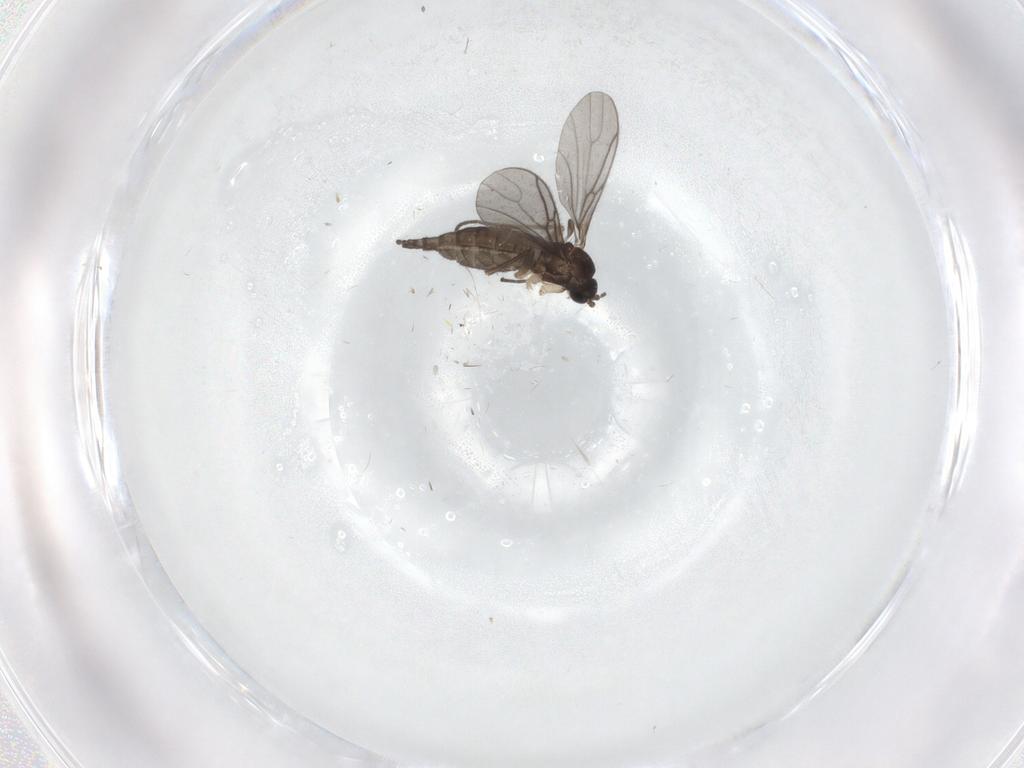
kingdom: Animalia
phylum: Arthropoda
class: Insecta
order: Diptera
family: Sciaridae
